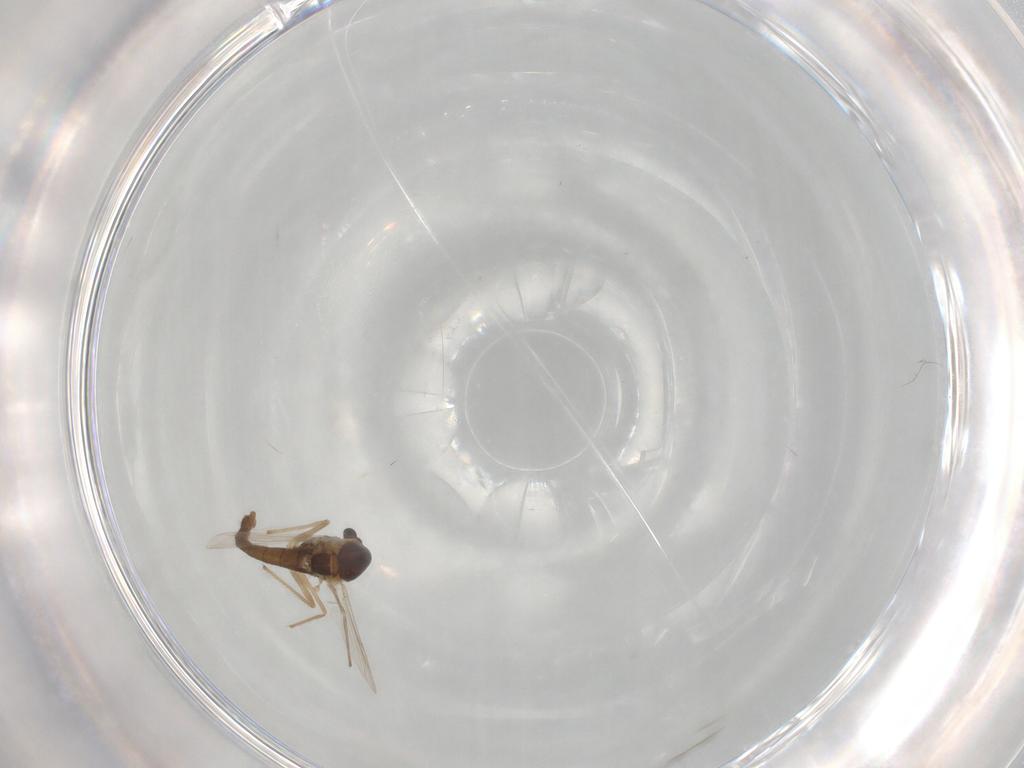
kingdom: Animalia
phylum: Arthropoda
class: Insecta
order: Diptera
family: Chironomidae
